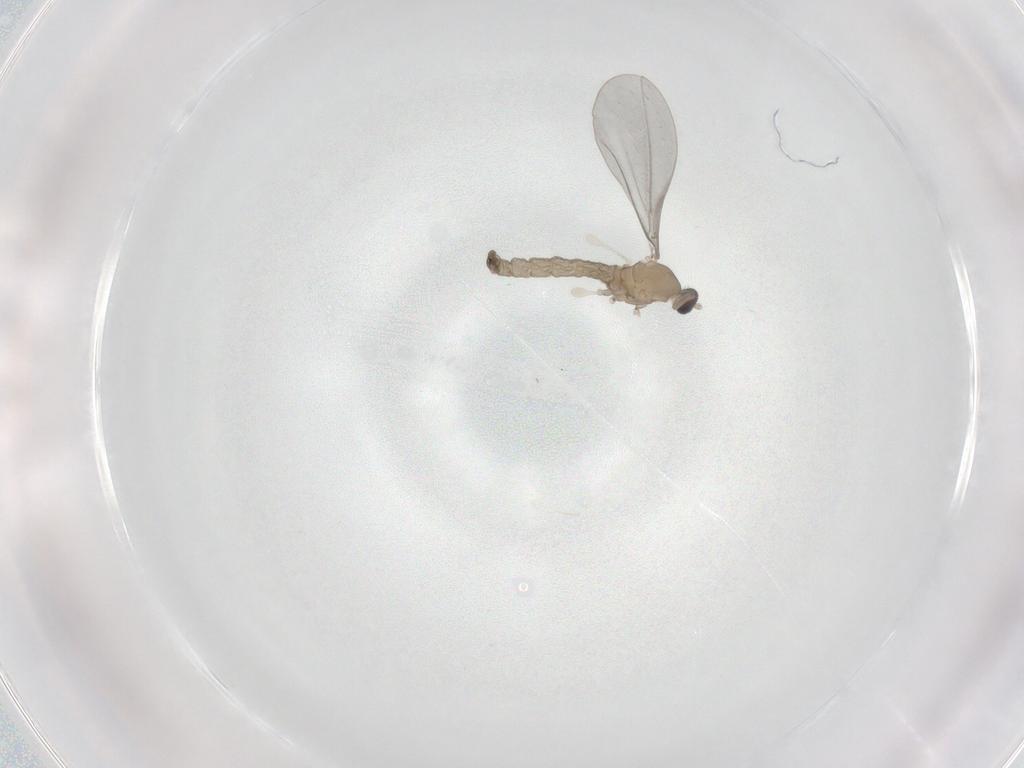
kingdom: Animalia
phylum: Arthropoda
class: Insecta
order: Diptera
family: Cecidomyiidae
